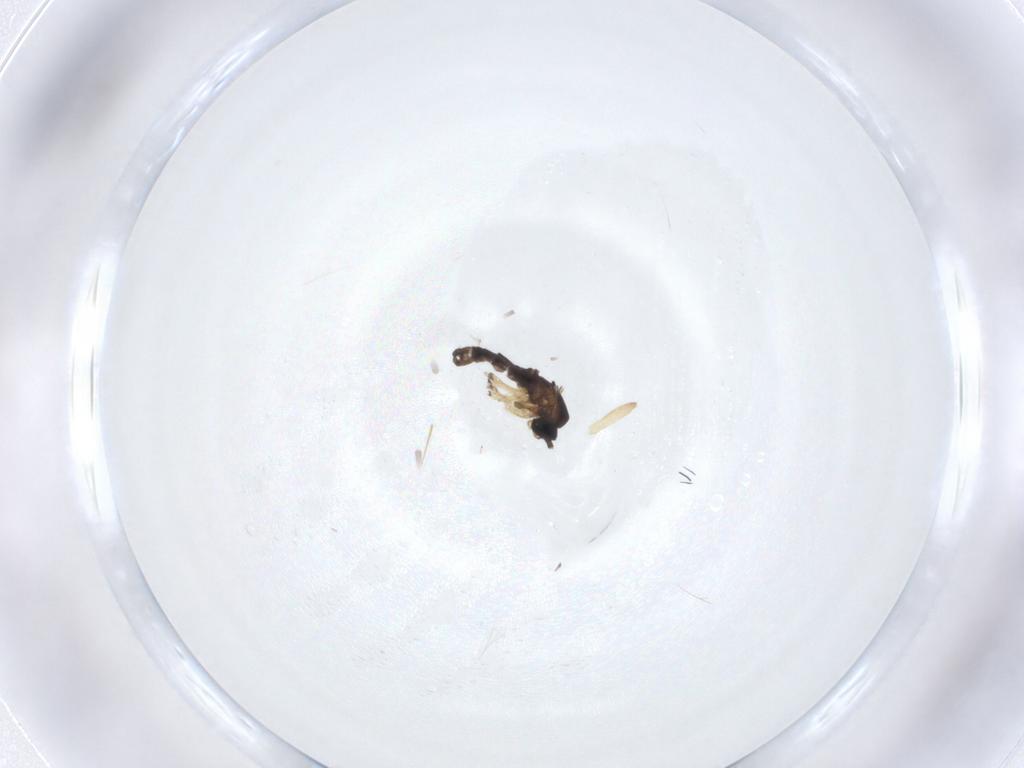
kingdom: Animalia
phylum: Arthropoda
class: Insecta
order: Diptera
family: Sciaridae
